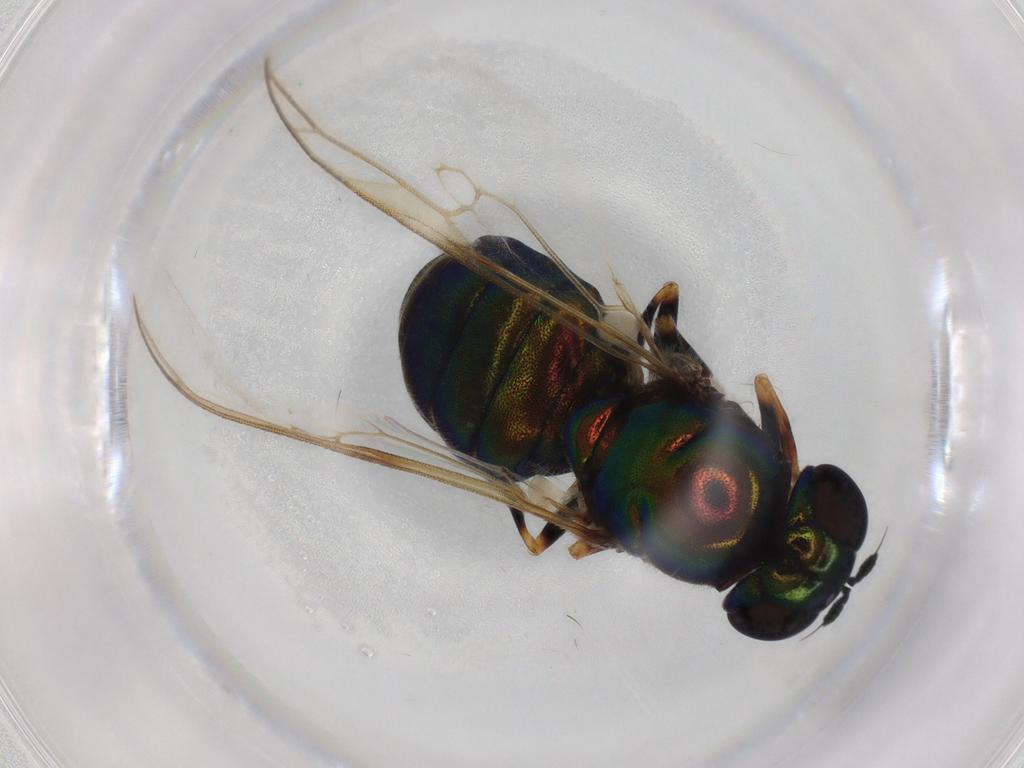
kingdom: Animalia
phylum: Arthropoda
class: Insecta
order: Diptera
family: Stratiomyidae
